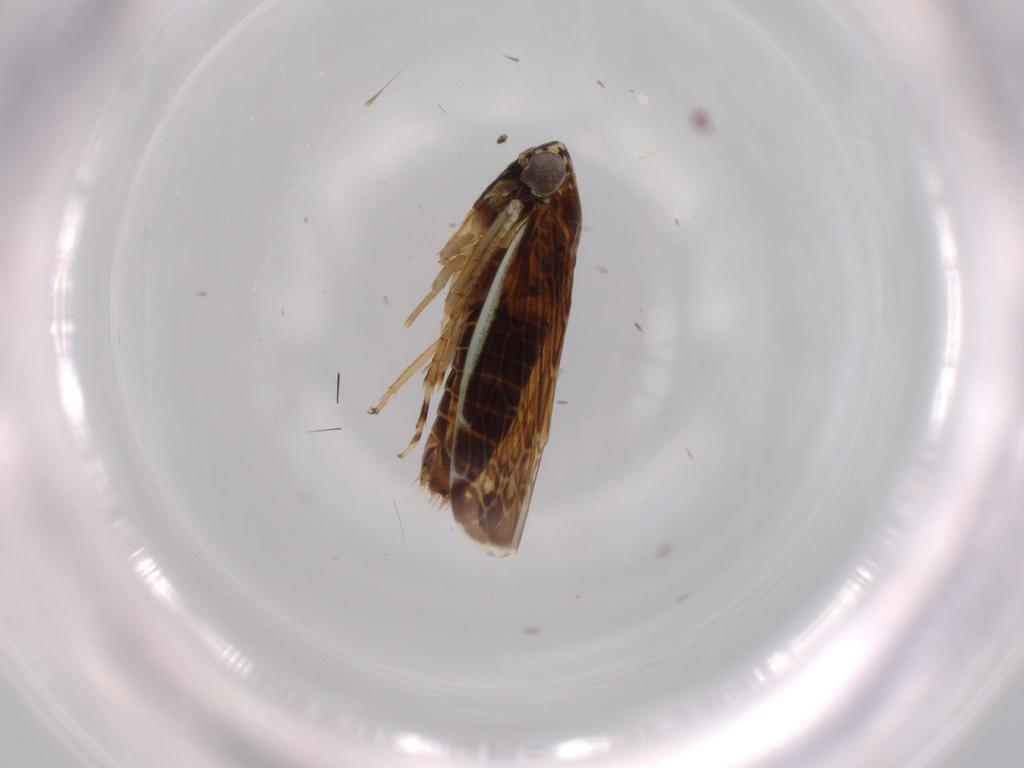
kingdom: Animalia
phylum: Arthropoda
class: Insecta
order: Hemiptera
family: Cicadellidae
